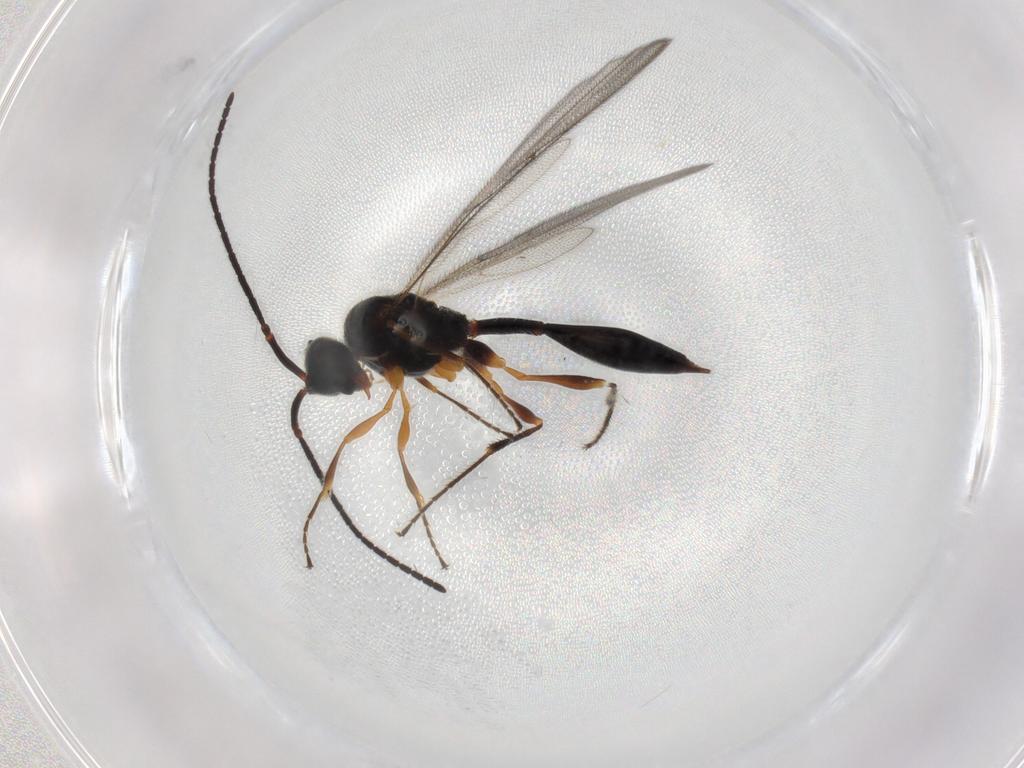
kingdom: Animalia
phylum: Arthropoda
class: Insecta
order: Hymenoptera
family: Diapriidae
